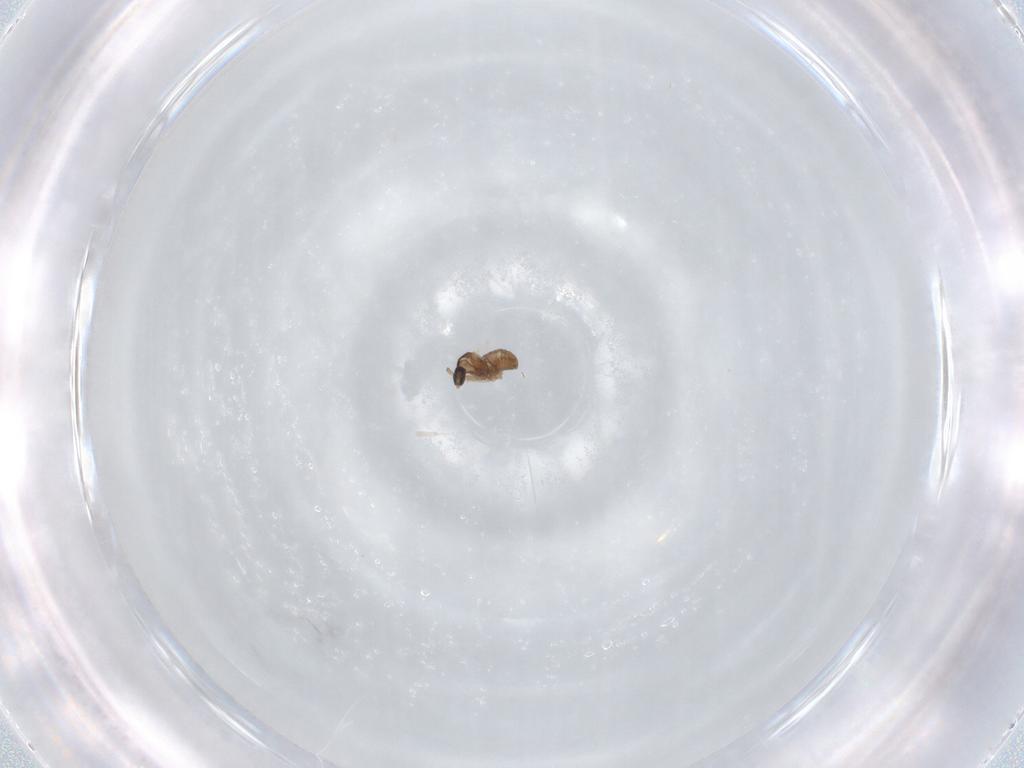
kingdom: Animalia
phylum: Arthropoda
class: Insecta
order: Diptera
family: Cecidomyiidae
